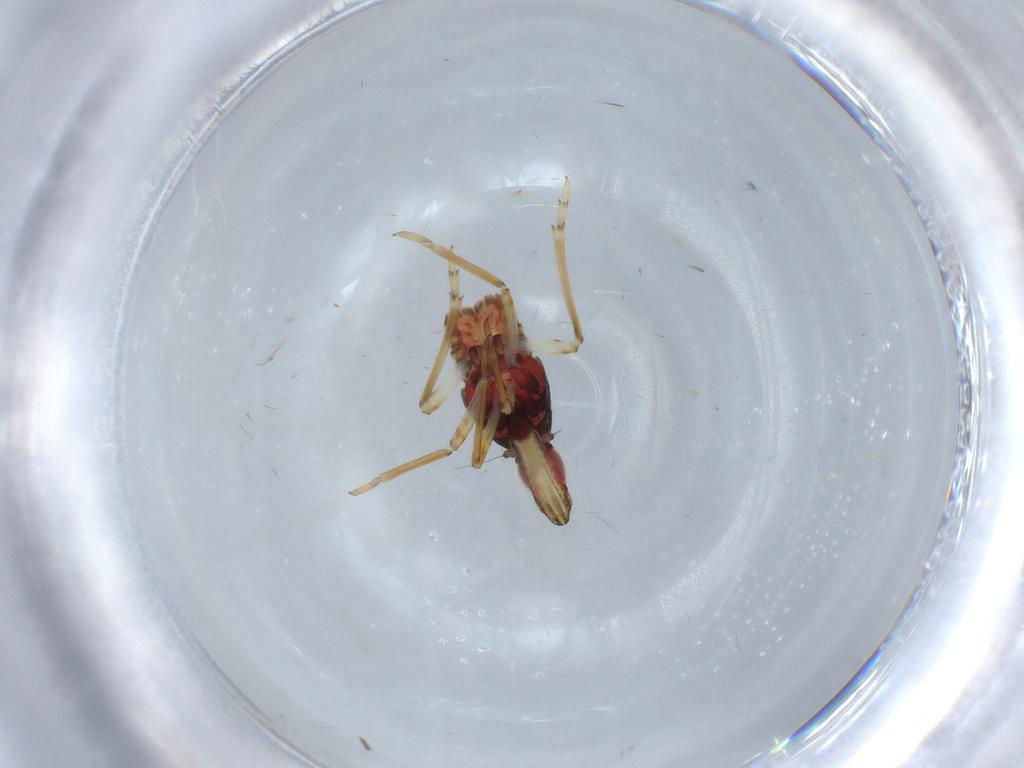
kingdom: Animalia
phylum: Arthropoda
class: Insecta
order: Hemiptera
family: Fulgoroidea_incertae_sedis
